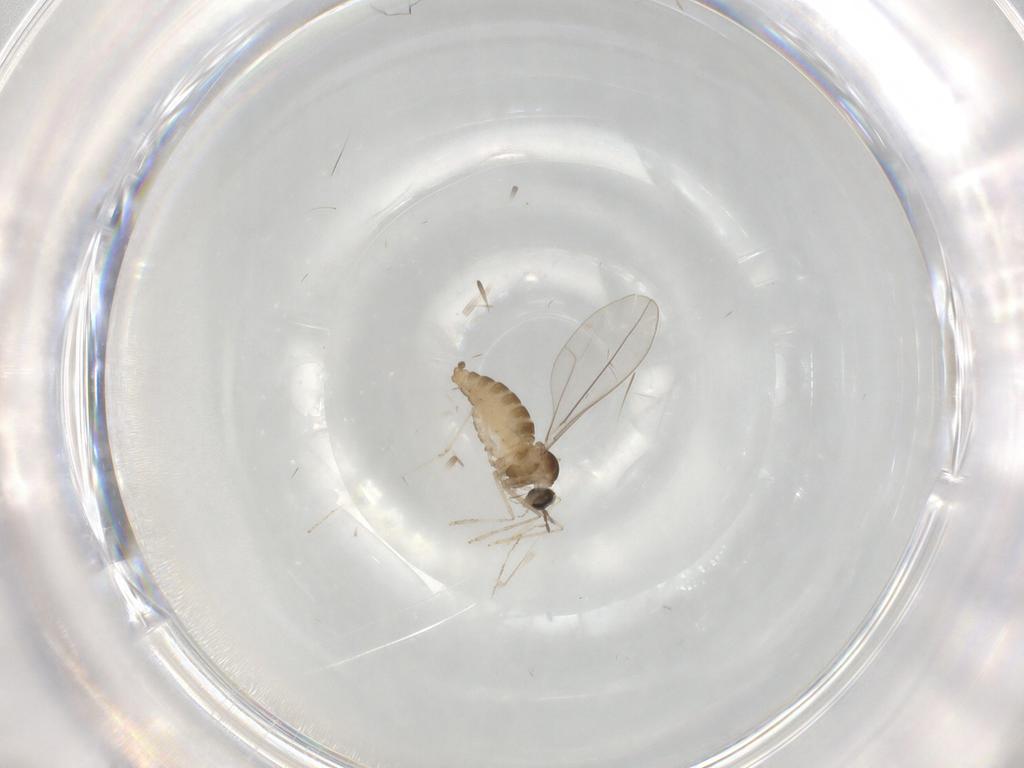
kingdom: Animalia
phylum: Arthropoda
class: Insecta
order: Diptera
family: Cecidomyiidae
